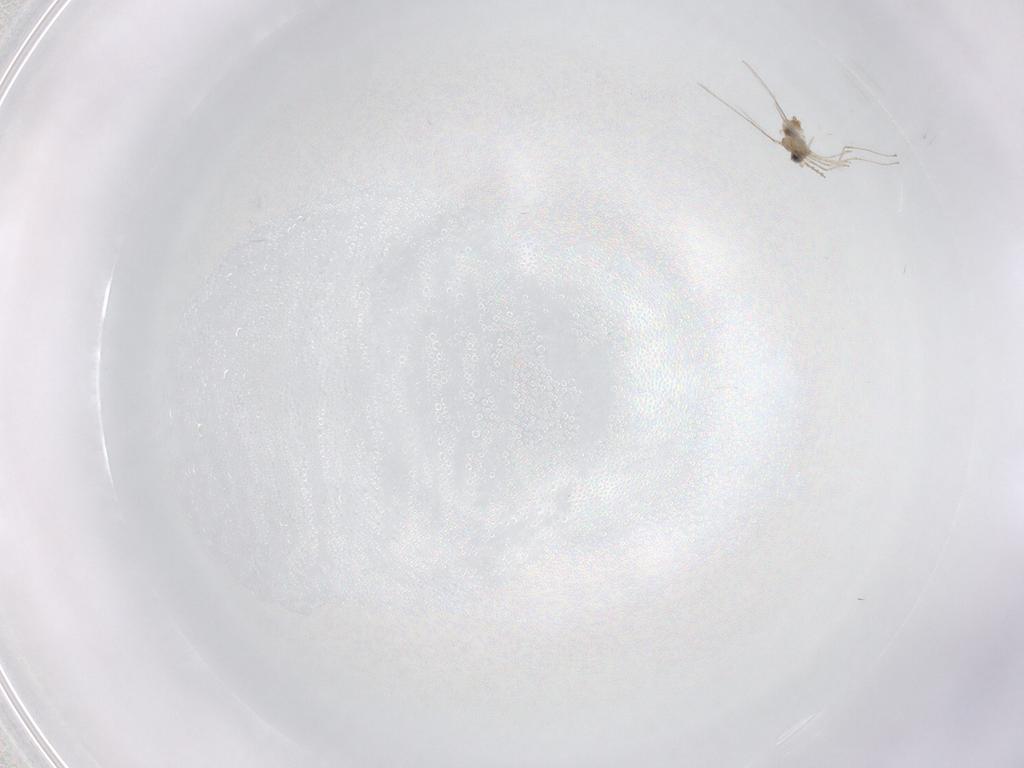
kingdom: Animalia
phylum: Arthropoda
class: Insecta
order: Diptera
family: Cecidomyiidae
